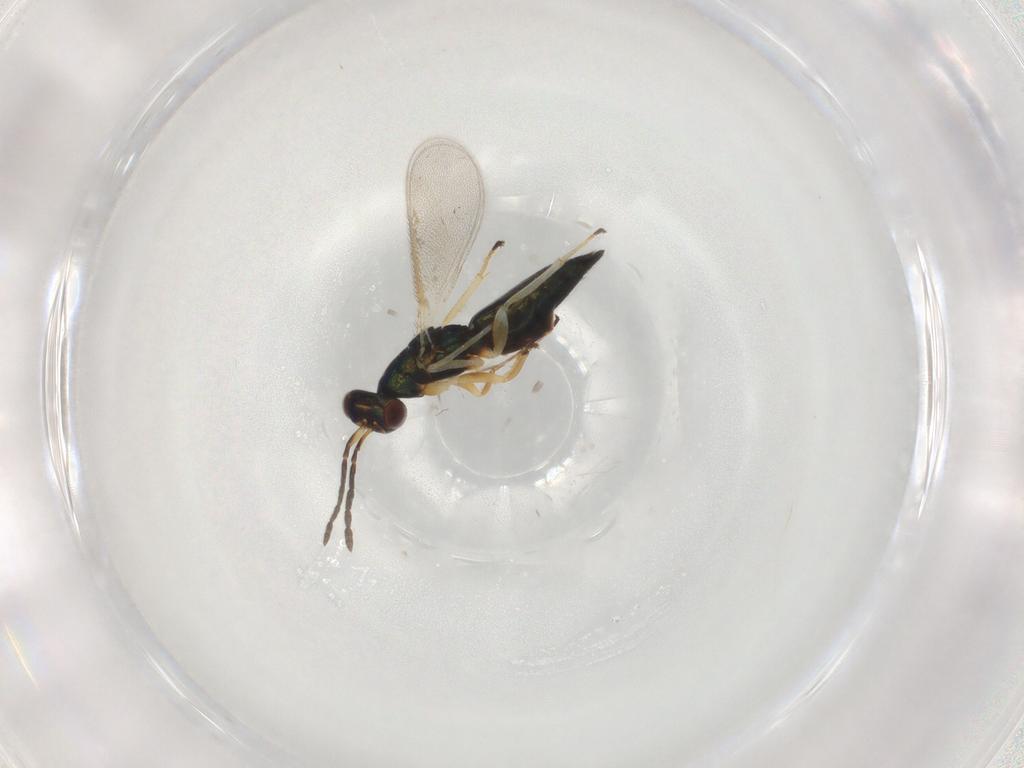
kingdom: Animalia
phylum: Arthropoda
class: Insecta
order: Hymenoptera
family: Eulophidae
